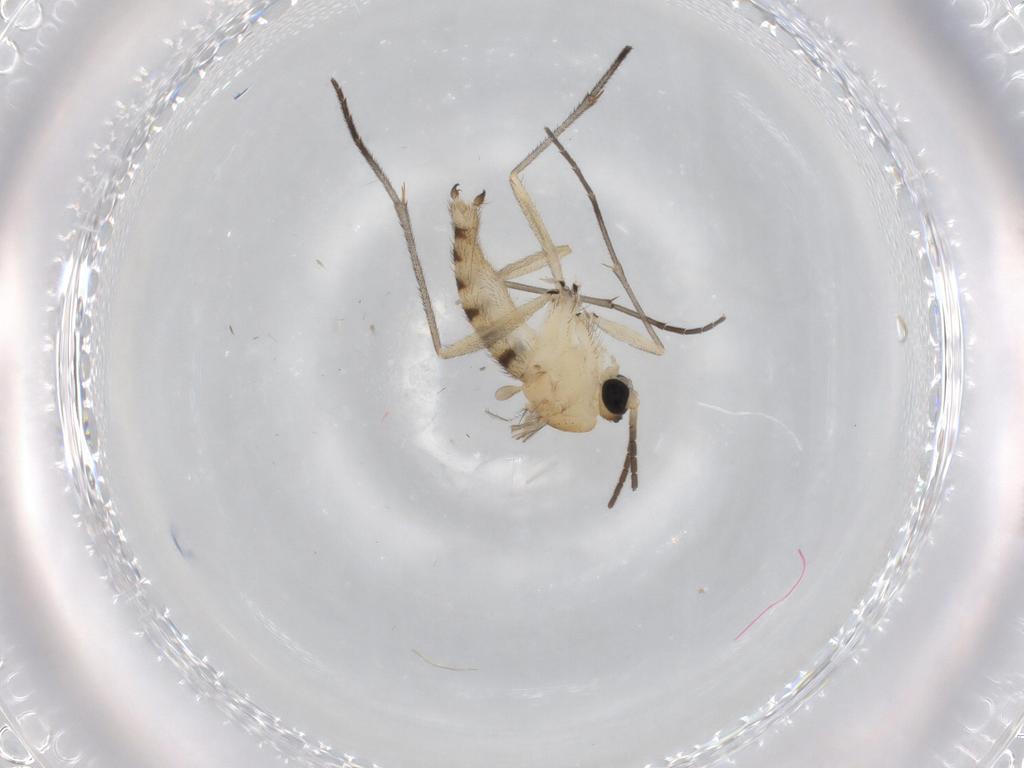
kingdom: Animalia
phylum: Arthropoda
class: Insecta
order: Diptera
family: Sciaridae
